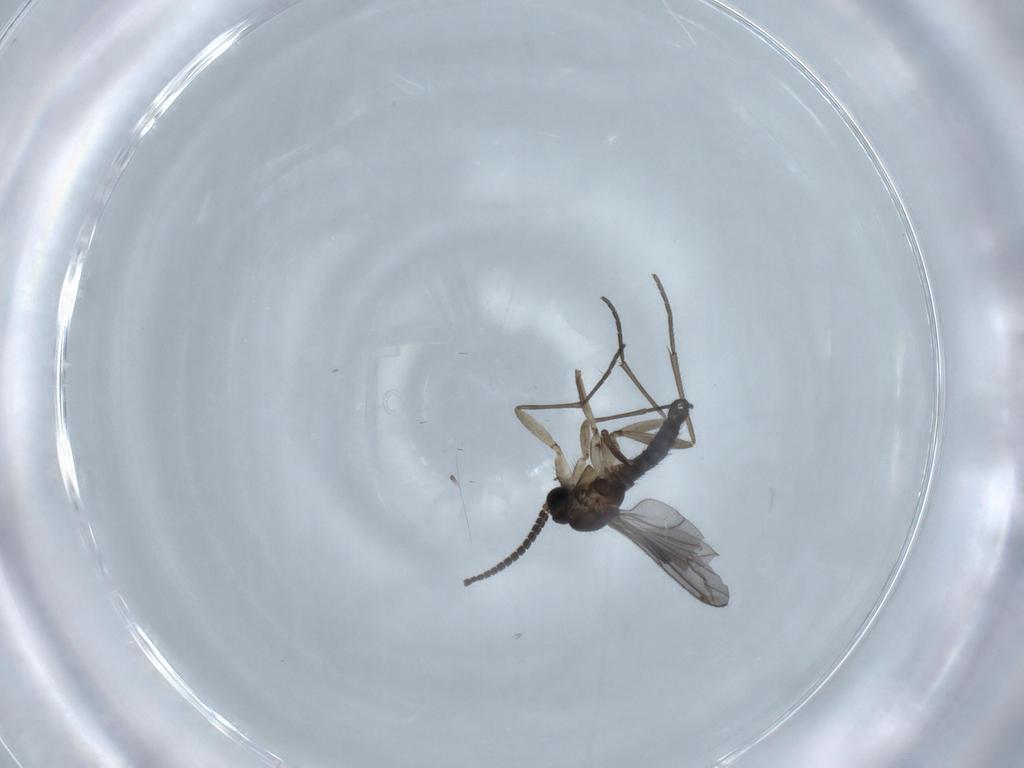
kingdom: Animalia
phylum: Arthropoda
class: Insecta
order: Diptera
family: Sciaridae
